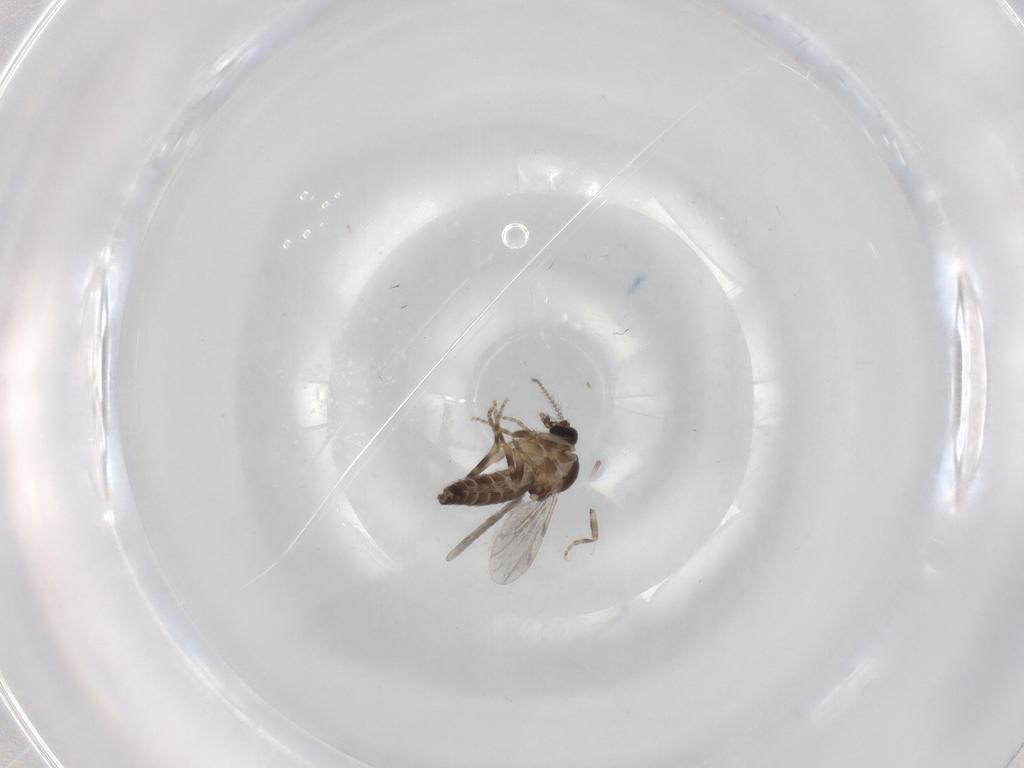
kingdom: Animalia
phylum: Arthropoda
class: Insecta
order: Diptera
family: Ceratopogonidae
